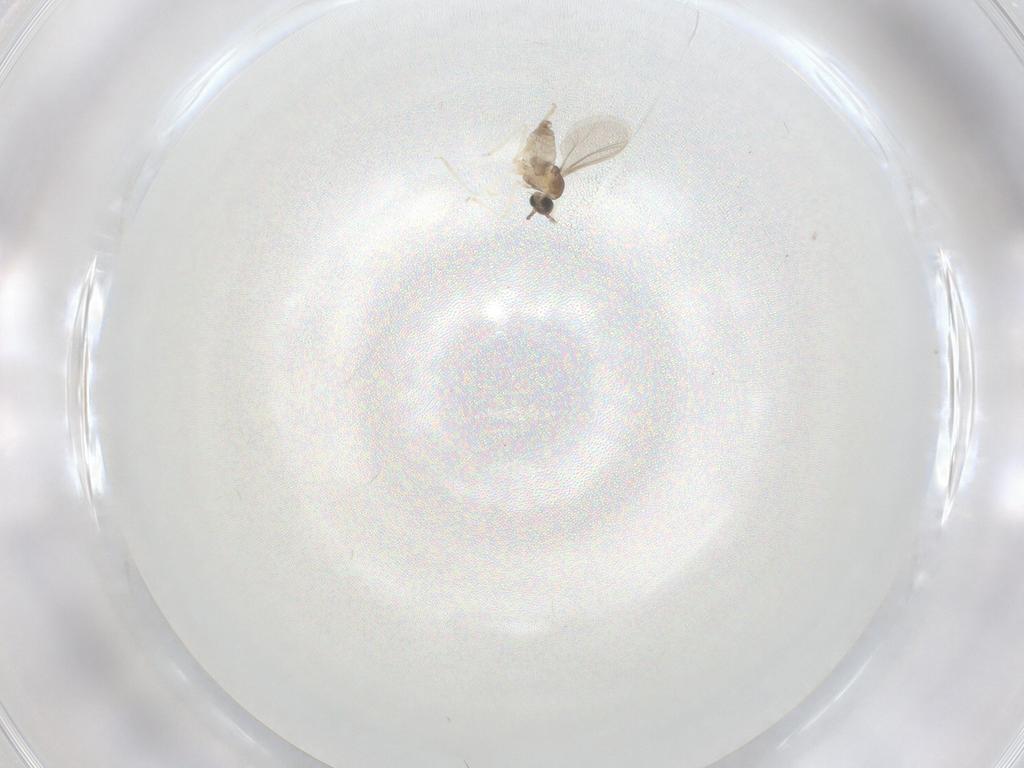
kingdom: Animalia
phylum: Arthropoda
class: Insecta
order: Diptera
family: Cecidomyiidae
